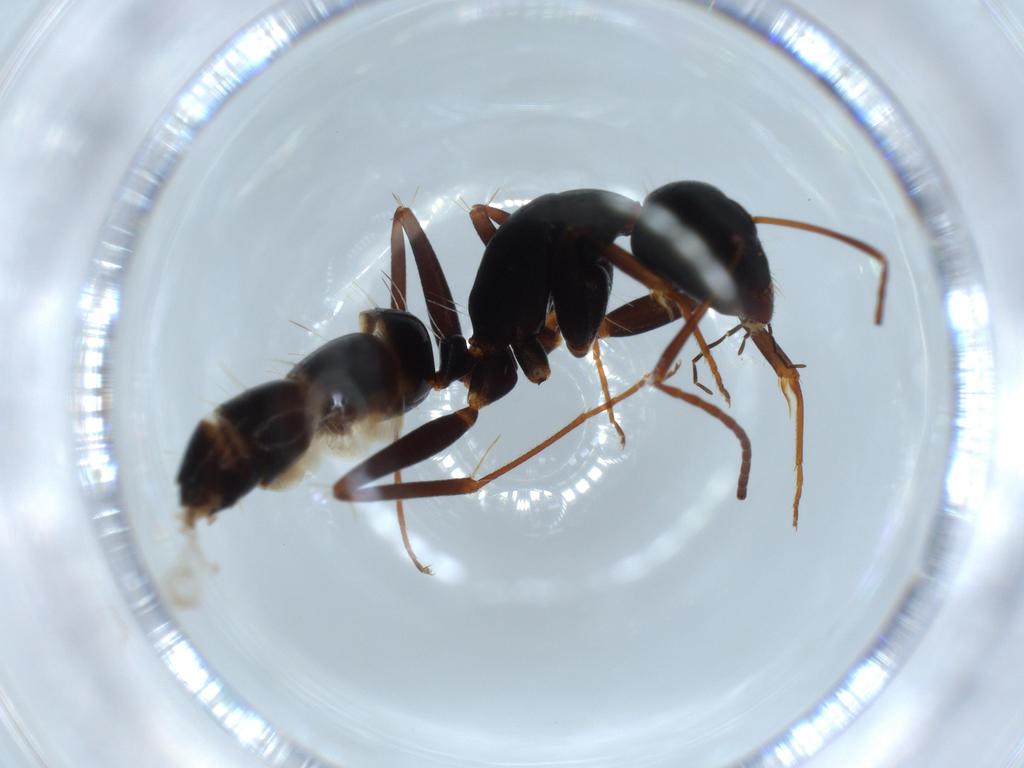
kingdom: Animalia
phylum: Arthropoda
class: Insecta
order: Hymenoptera
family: Formicidae
